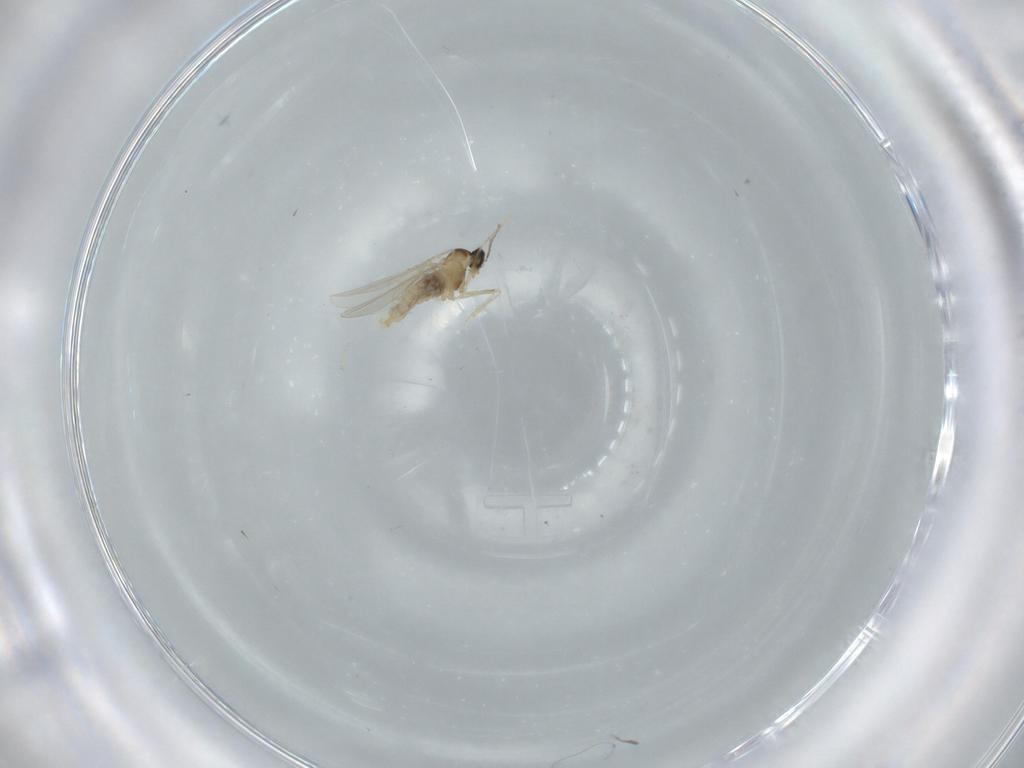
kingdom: Animalia
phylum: Arthropoda
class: Insecta
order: Diptera
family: Cecidomyiidae
